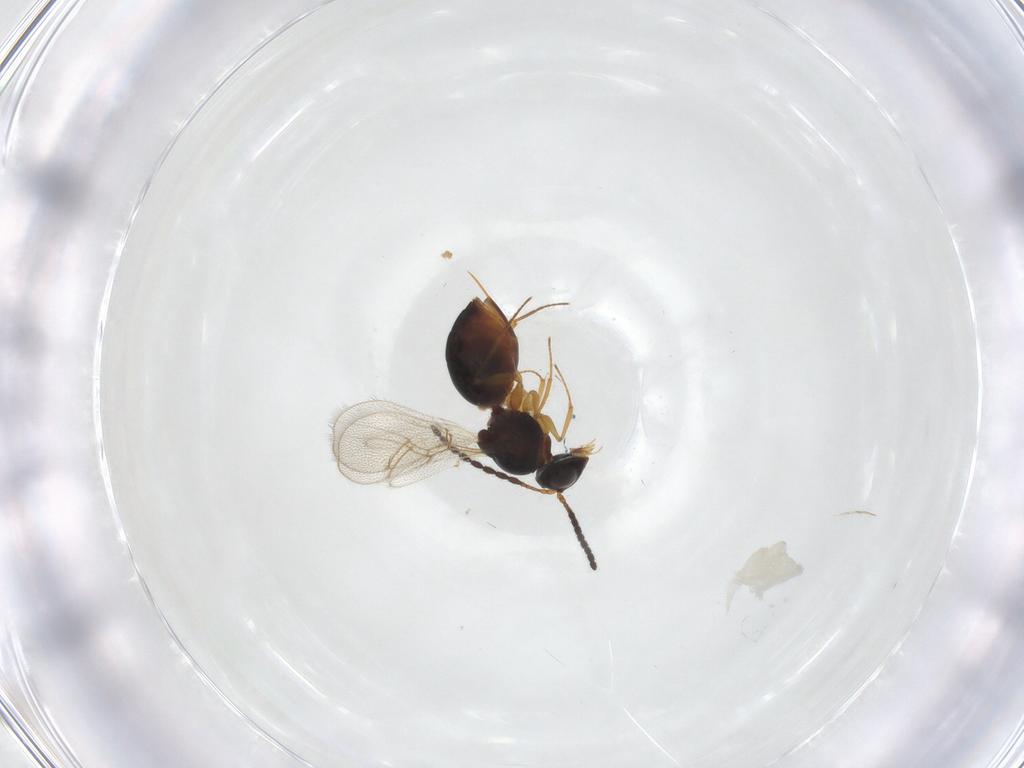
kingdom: Animalia
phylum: Arthropoda
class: Insecta
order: Hymenoptera
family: Figitidae
